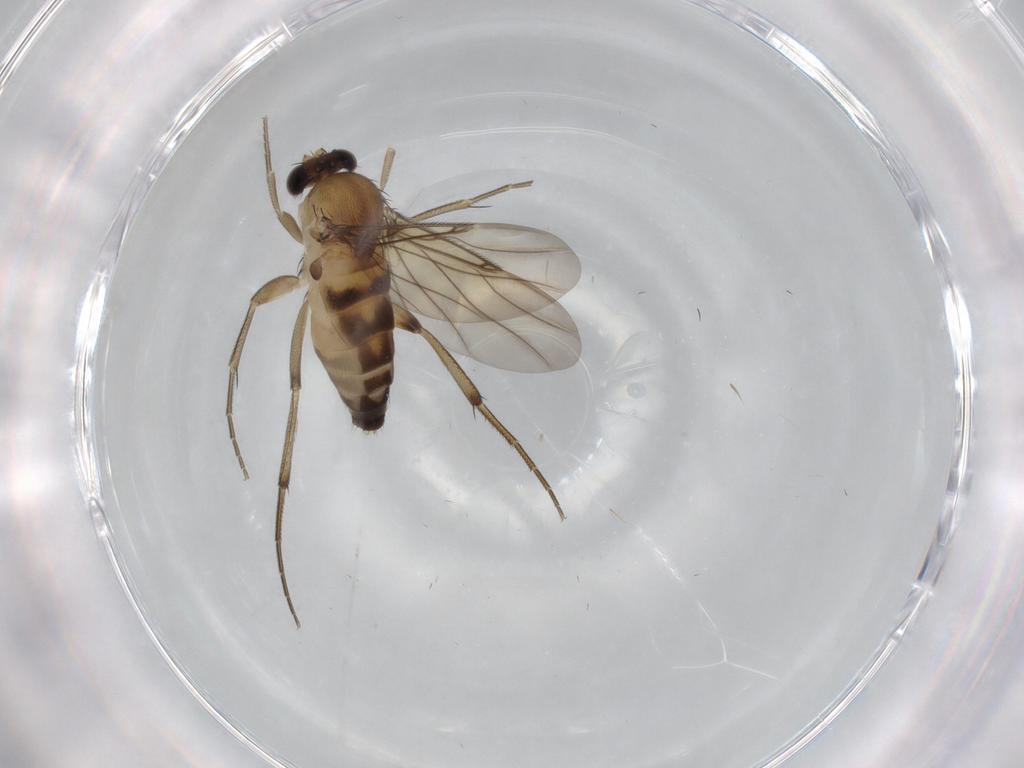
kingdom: Animalia
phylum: Arthropoda
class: Insecta
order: Diptera
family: Phoridae
